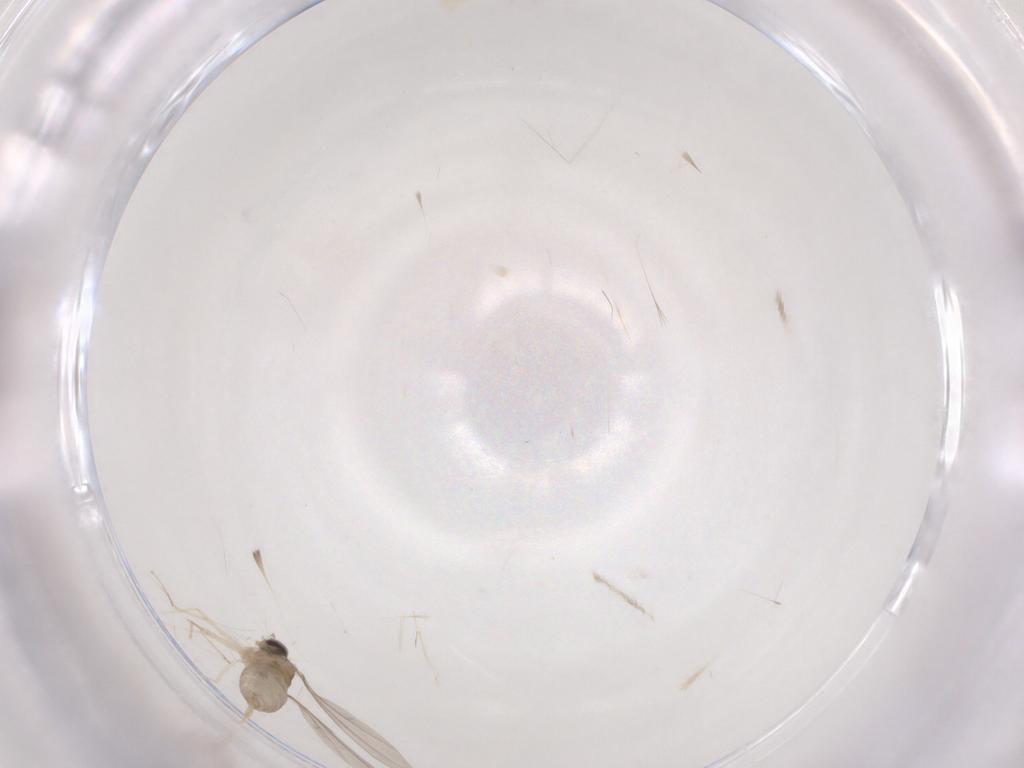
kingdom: Animalia
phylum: Arthropoda
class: Insecta
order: Diptera
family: Cecidomyiidae
